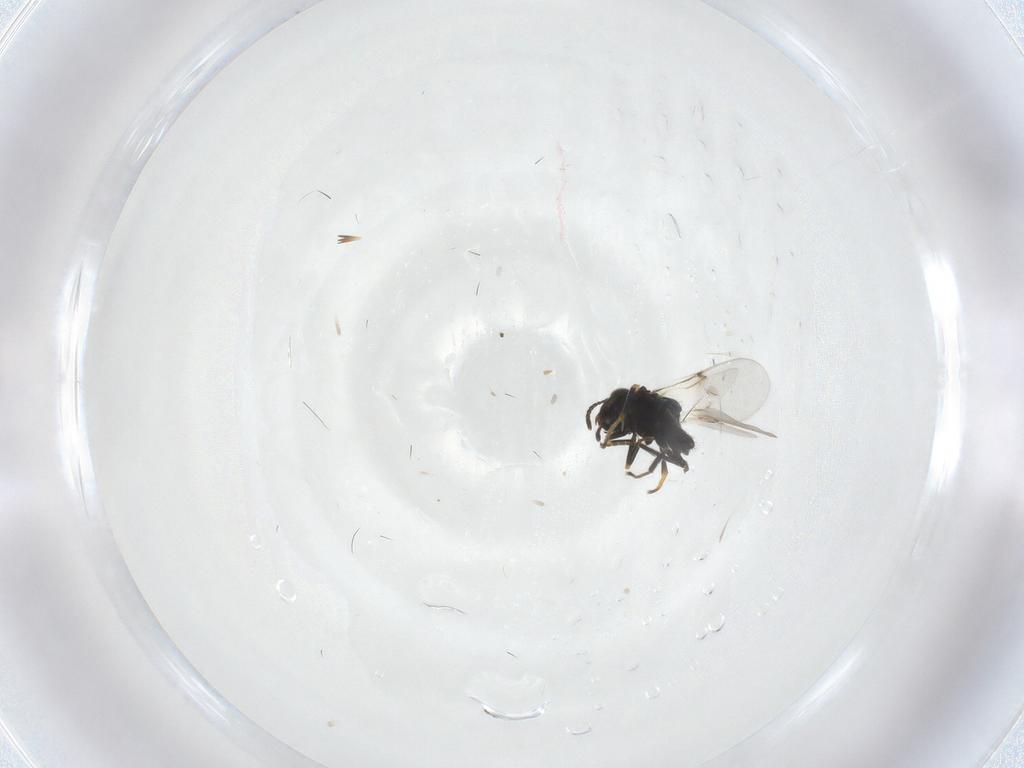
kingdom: Animalia
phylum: Arthropoda
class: Insecta
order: Hymenoptera
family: Encyrtidae
